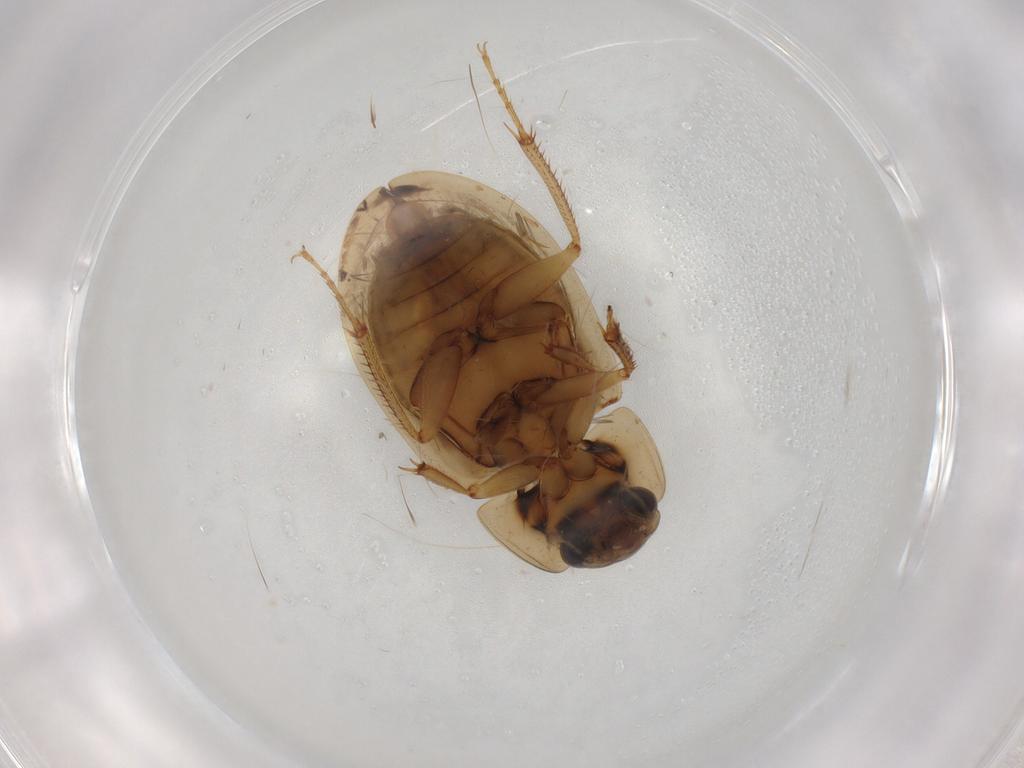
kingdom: Animalia
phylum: Arthropoda
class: Insecta
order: Coleoptera
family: Hydrophilidae
